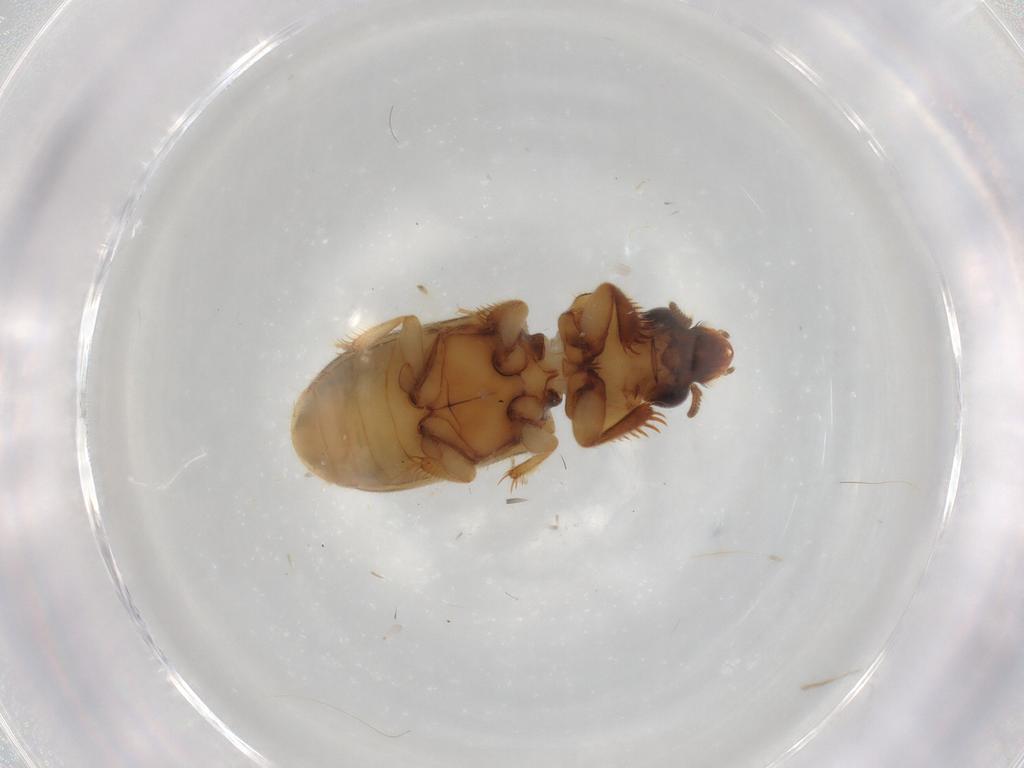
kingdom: Animalia
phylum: Arthropoda
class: Insecta
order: Coleoptera
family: Heteroceridae
